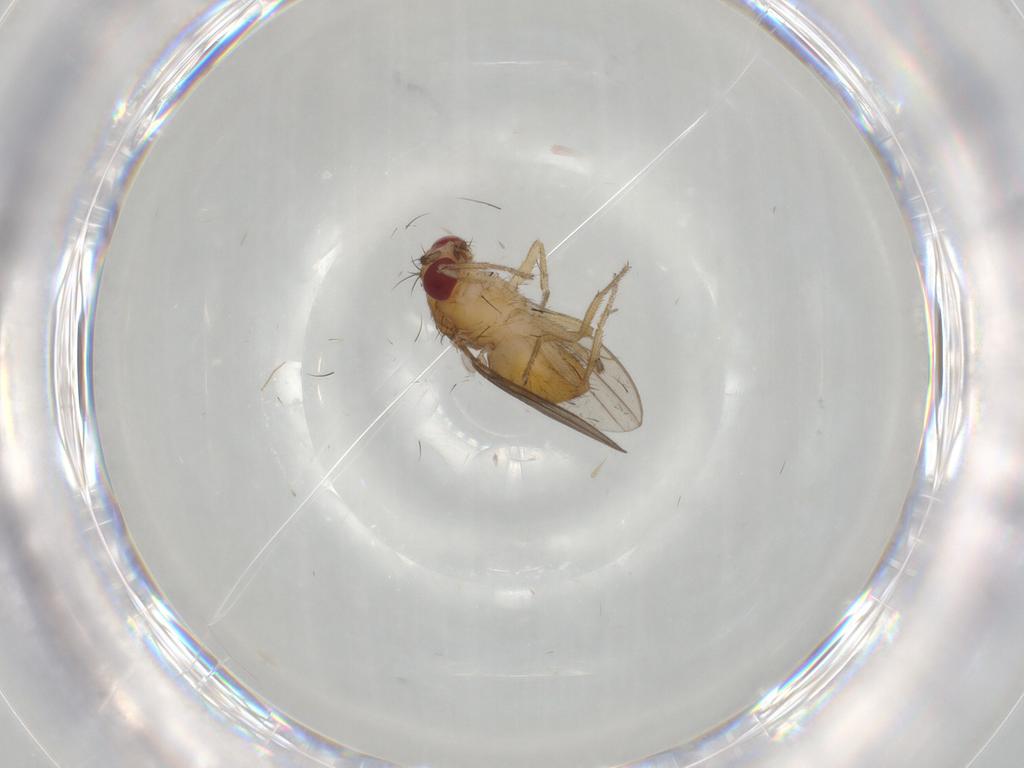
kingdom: Animalia
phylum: Arthropoda
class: Insecta
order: Diptera
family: Drosophilidae
